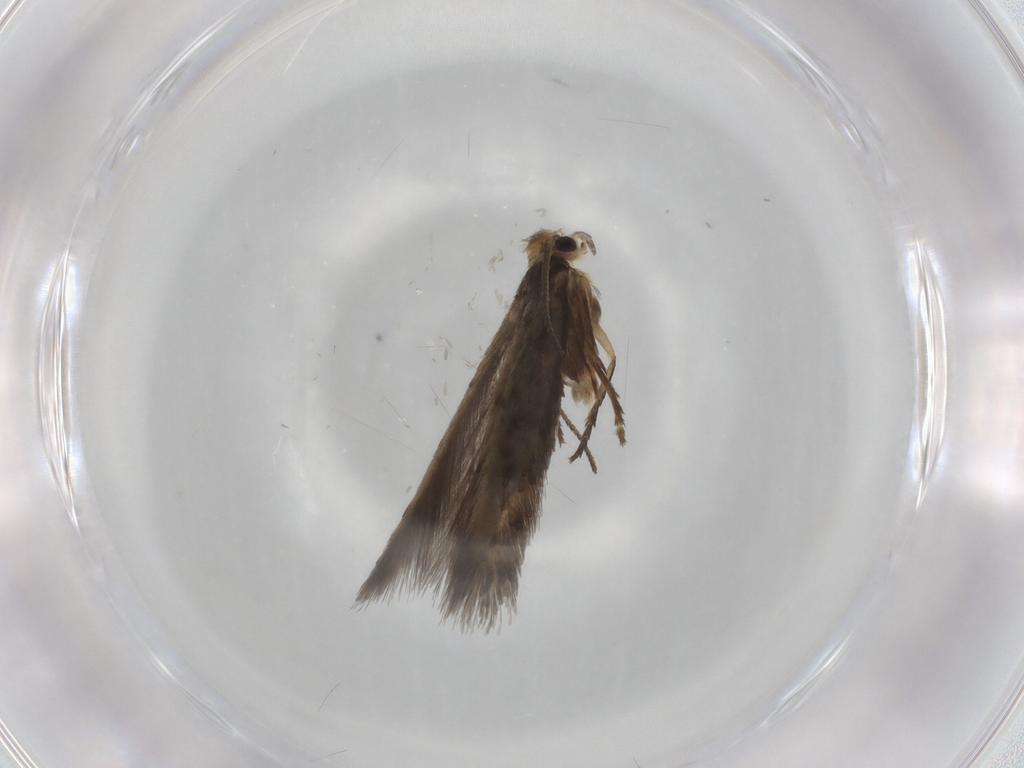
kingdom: Animalia
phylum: Arthropoda
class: Insecta
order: Lepidoptera
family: Nepticulidae
